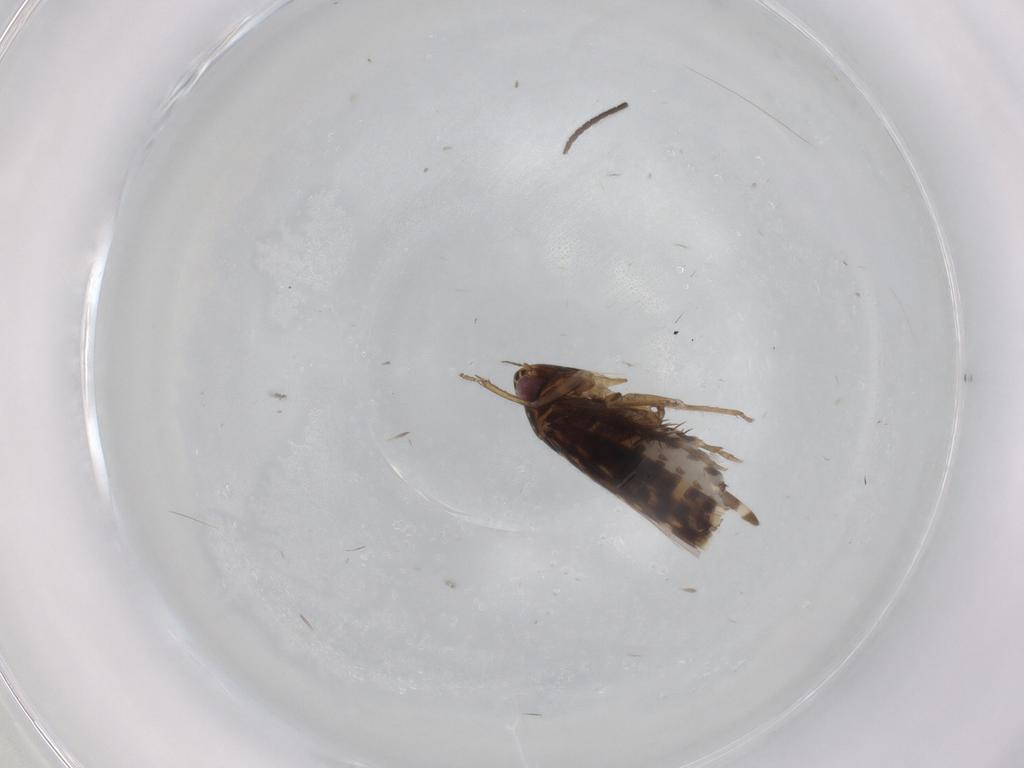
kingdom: Animalia
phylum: Arthropoda
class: Insecta
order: Hemiptera
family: Cicadellidae
